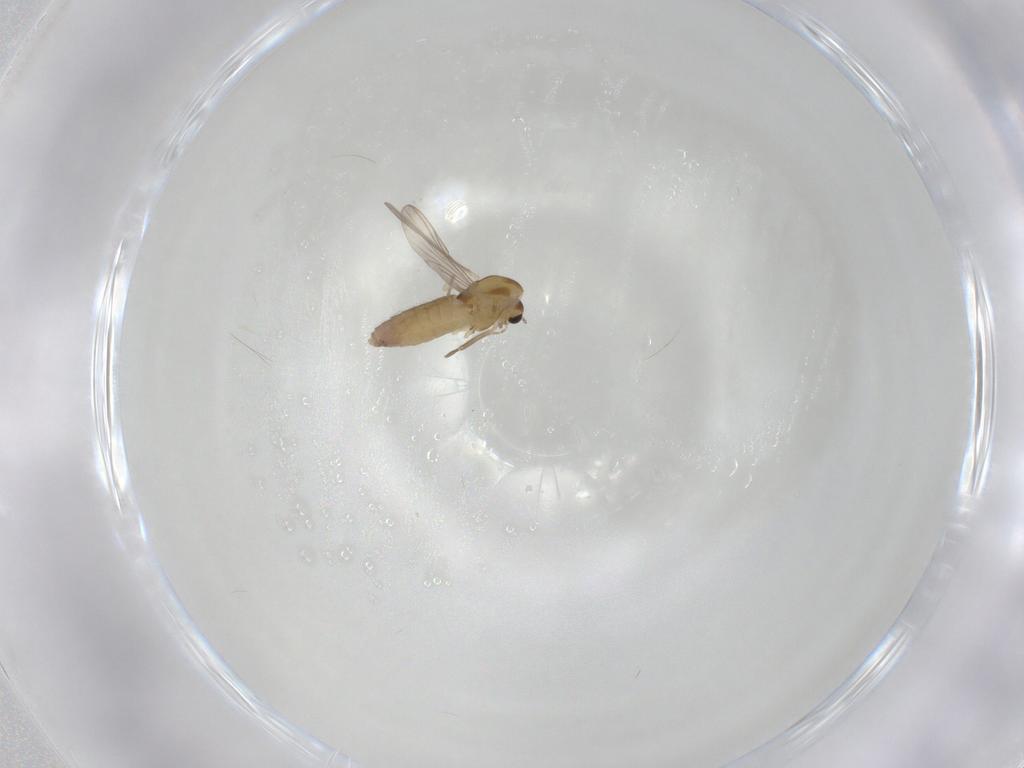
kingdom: Animalia
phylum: Arthropoda
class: Insecta
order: Diptera
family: Chironomidae
